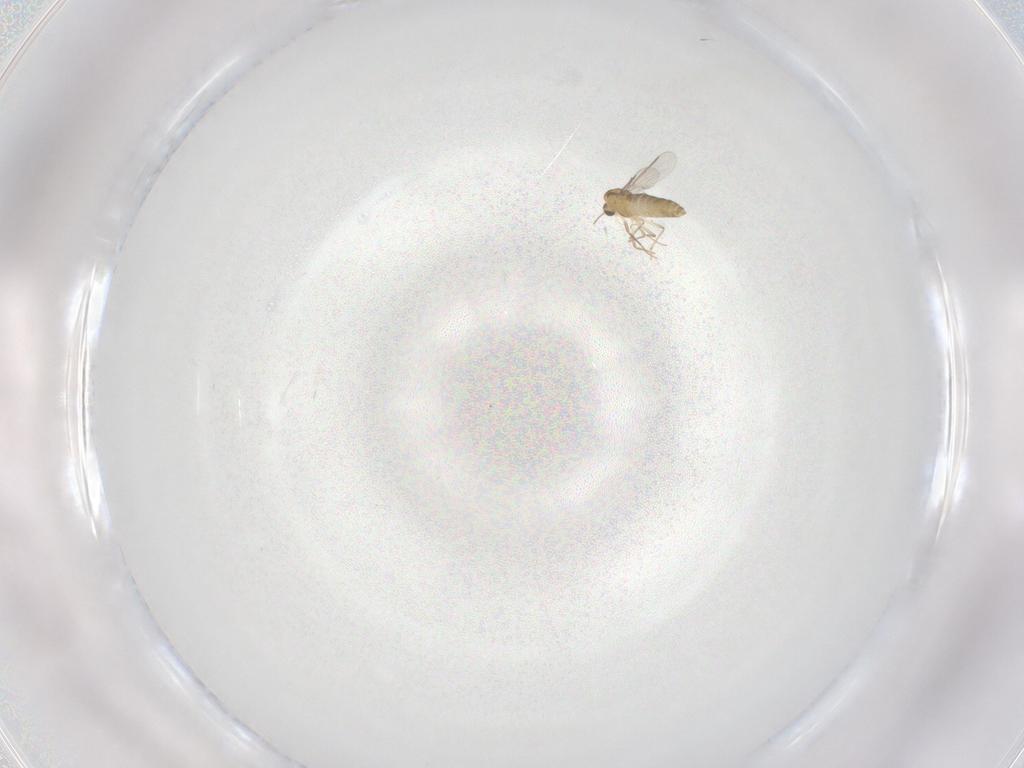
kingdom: Animalia
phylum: Arthropoda
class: Insecta
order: Diptera
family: Chironomidae
